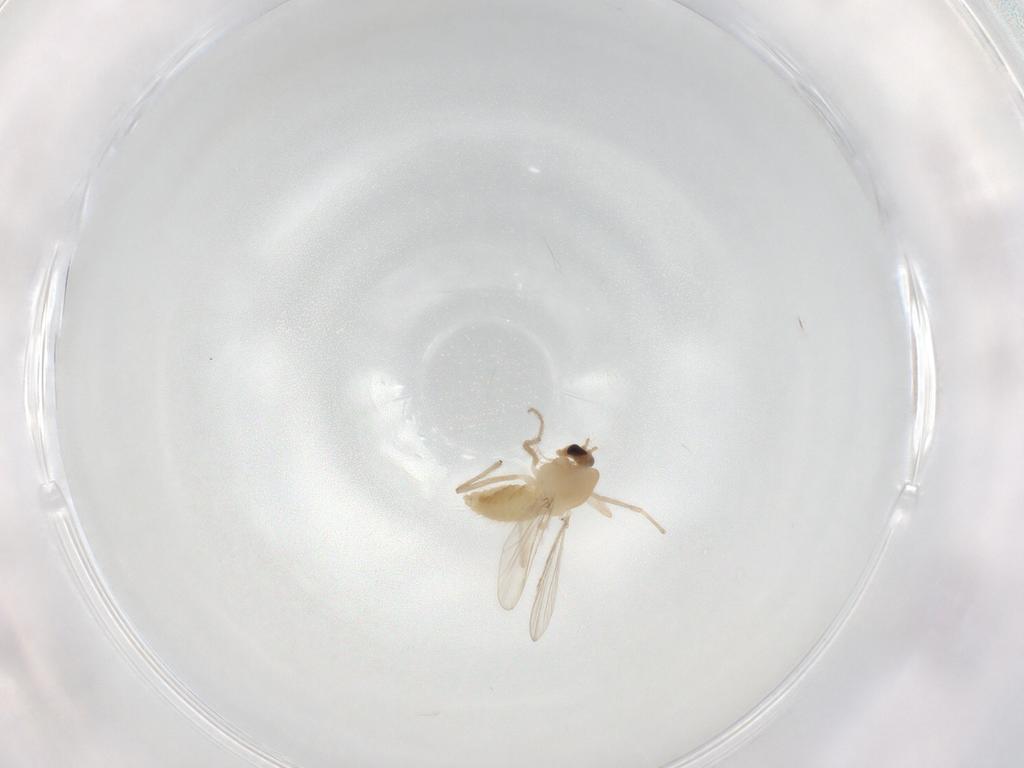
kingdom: Animalia
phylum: Arthropoda
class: Insecta
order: Diptera
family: Chironomidae
